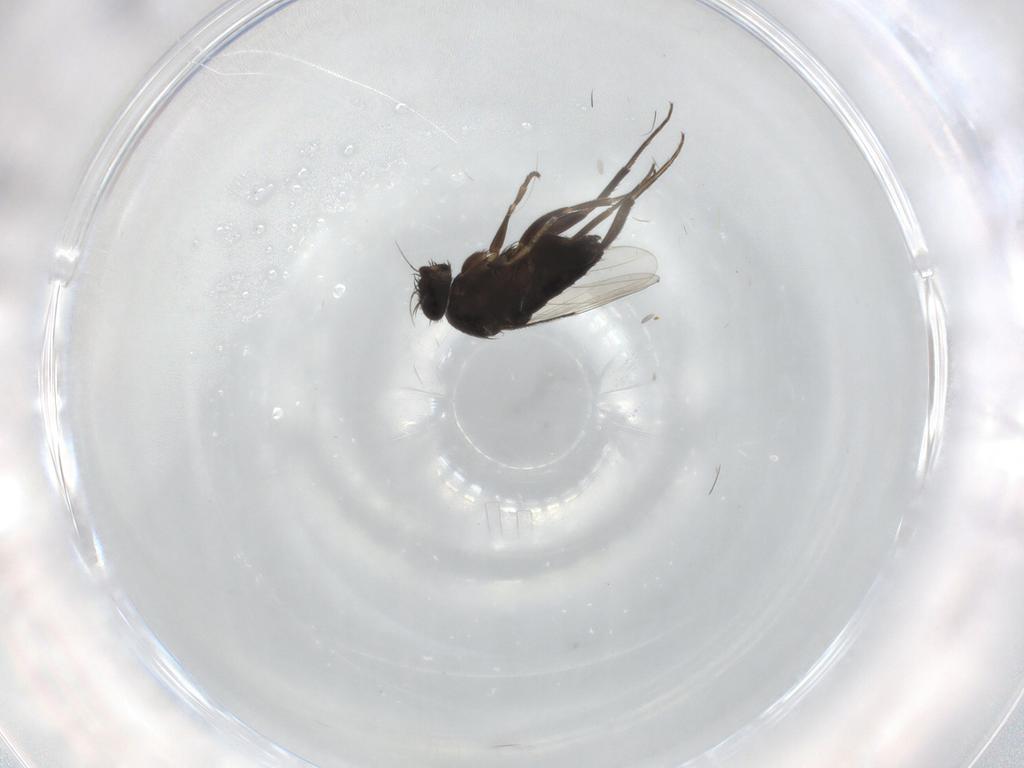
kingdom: Animalia
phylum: Arthropoda
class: Insecta
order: Diptera
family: Phoridae
